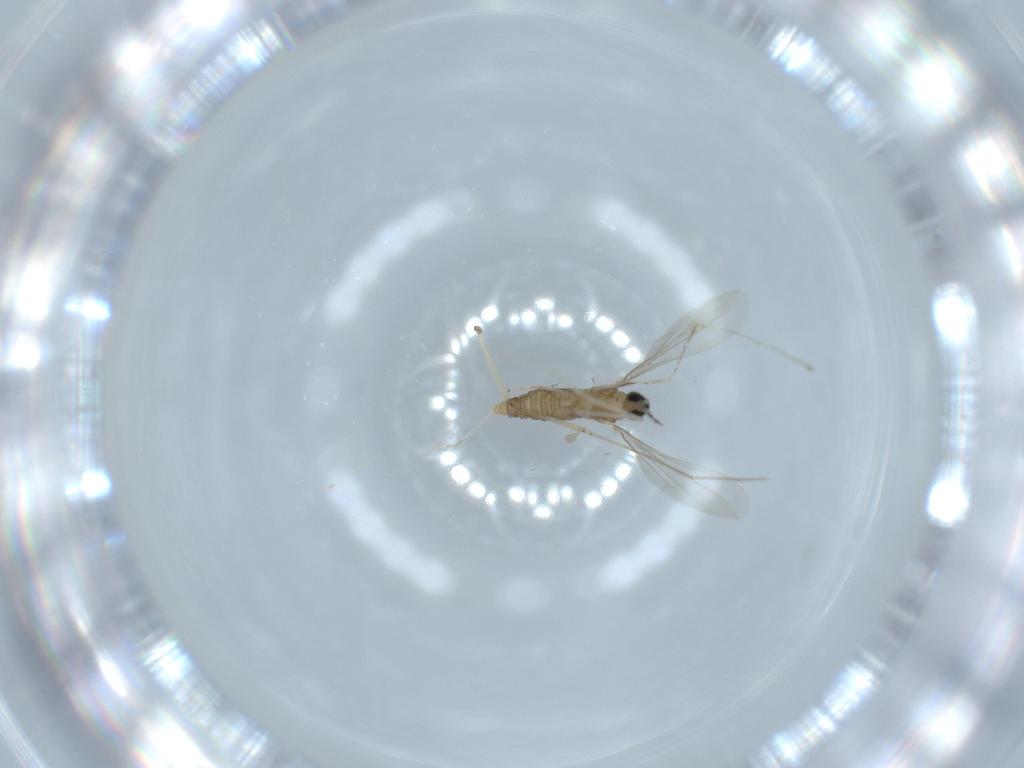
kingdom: Animalia
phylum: Arthropoda
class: Insecta
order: Diptera
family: Cecidomyiidae
